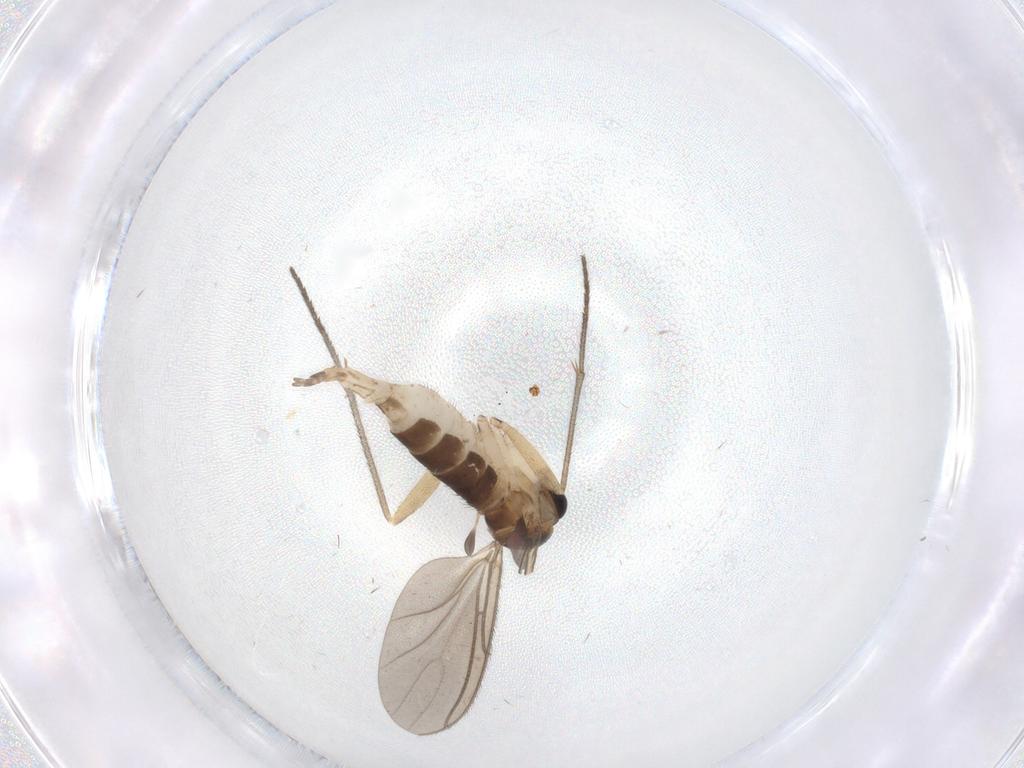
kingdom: Animalia
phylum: Arthropoda
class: Insecta
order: Diptera
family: Sciaridae
